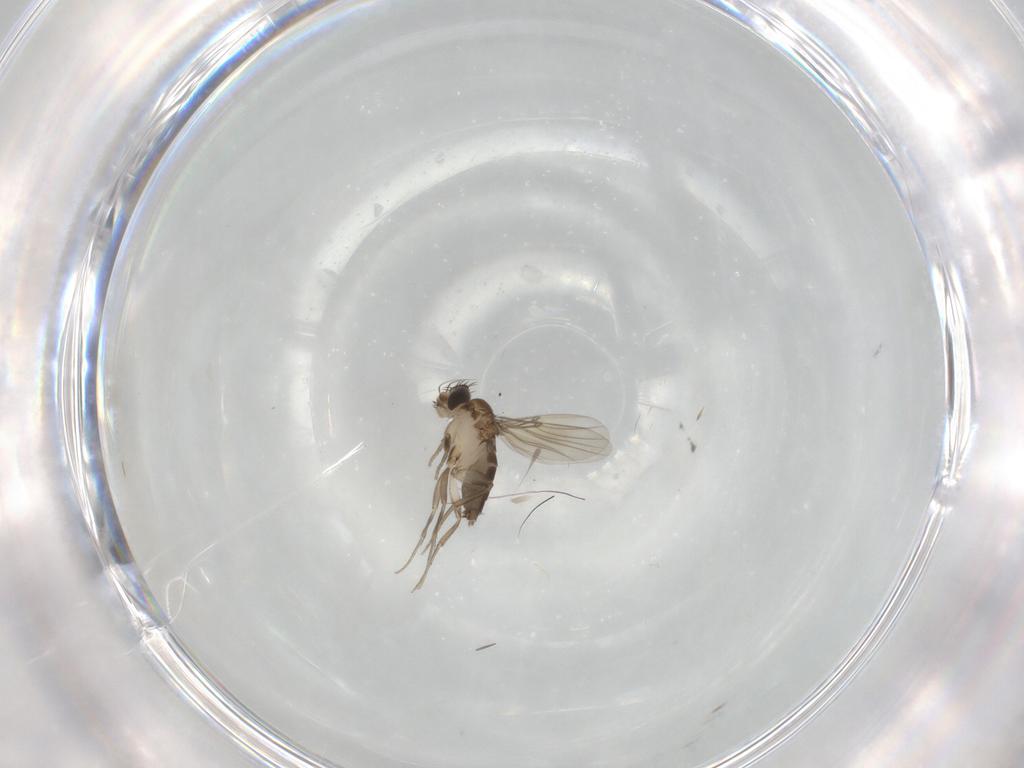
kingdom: Animalia
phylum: Arthropoda
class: Insecta
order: Diptera
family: Phoridae
